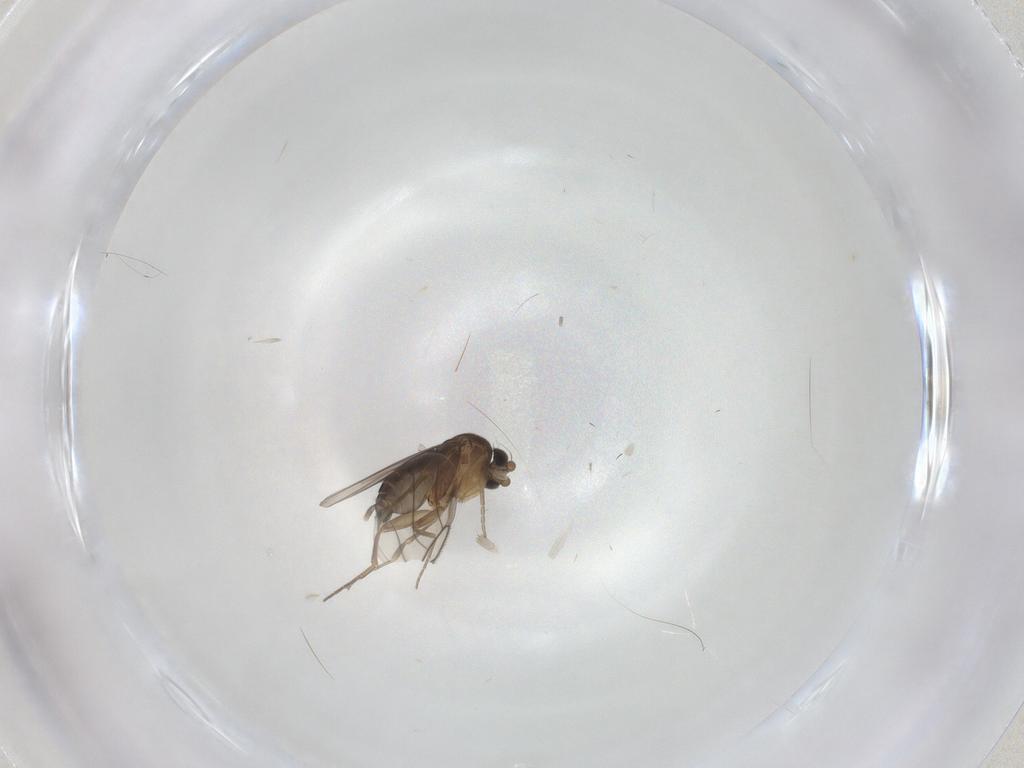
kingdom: Animalia
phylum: Arthropoda
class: Insecta
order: Diptera
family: Phoridae
